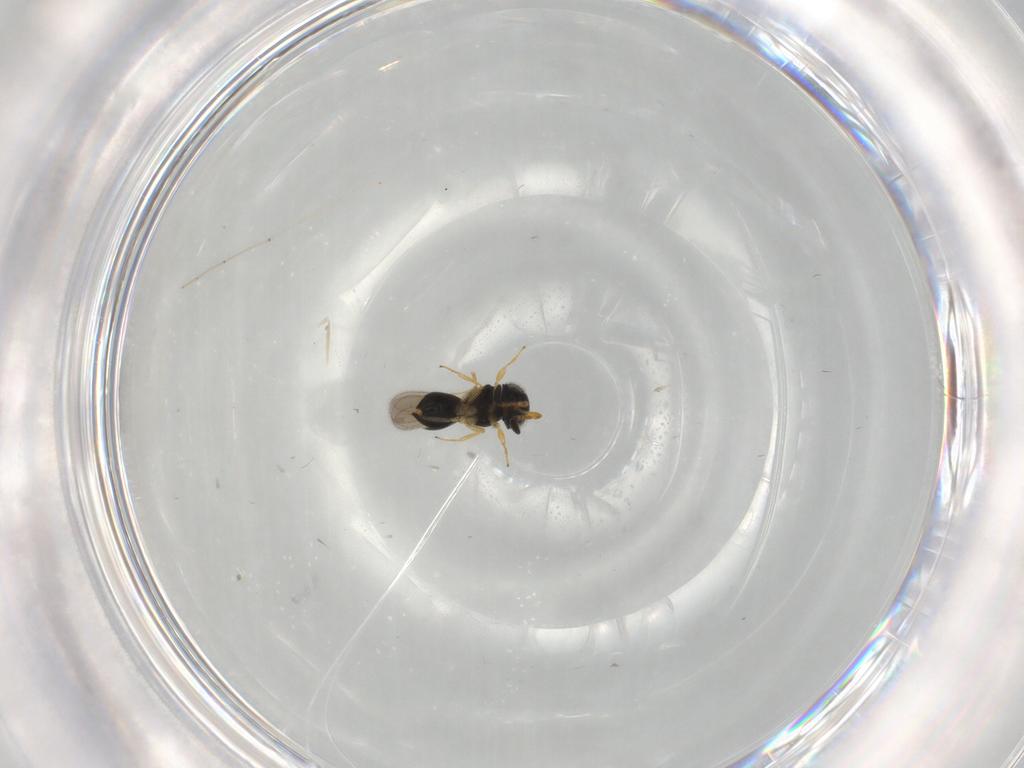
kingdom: Animalia
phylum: Arthropoda
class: Insecta
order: Hymenoptera
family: Scelionidae
